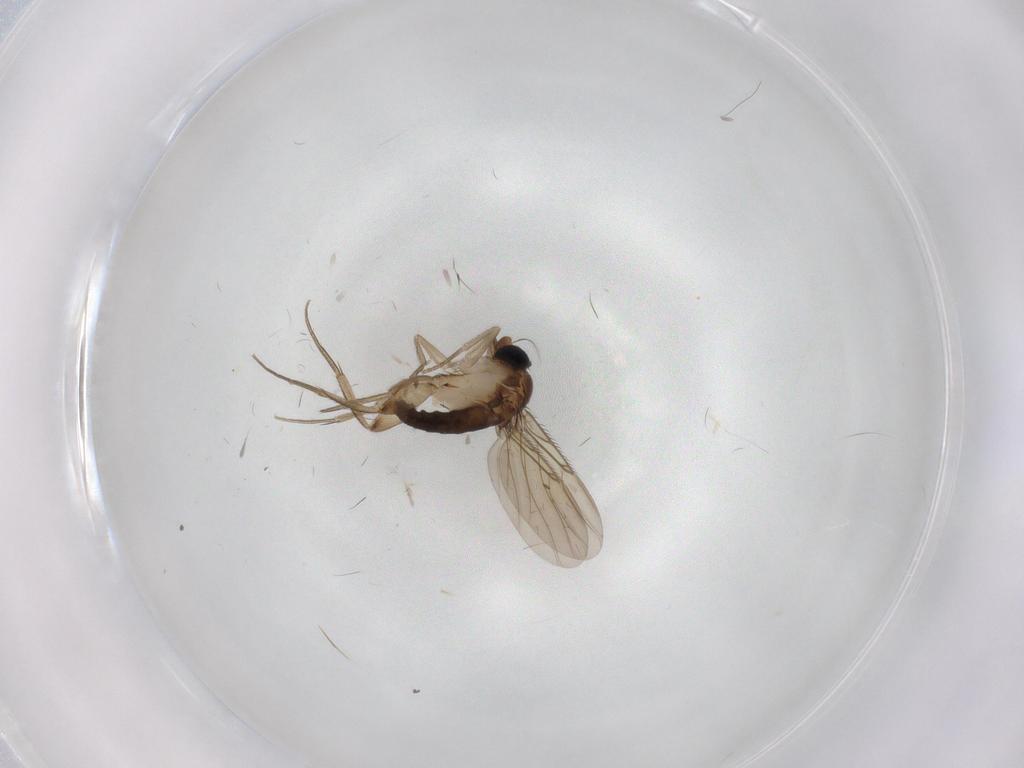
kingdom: Animalia
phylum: Arthropoda
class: Insecta
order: Diptera
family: Phoridae
